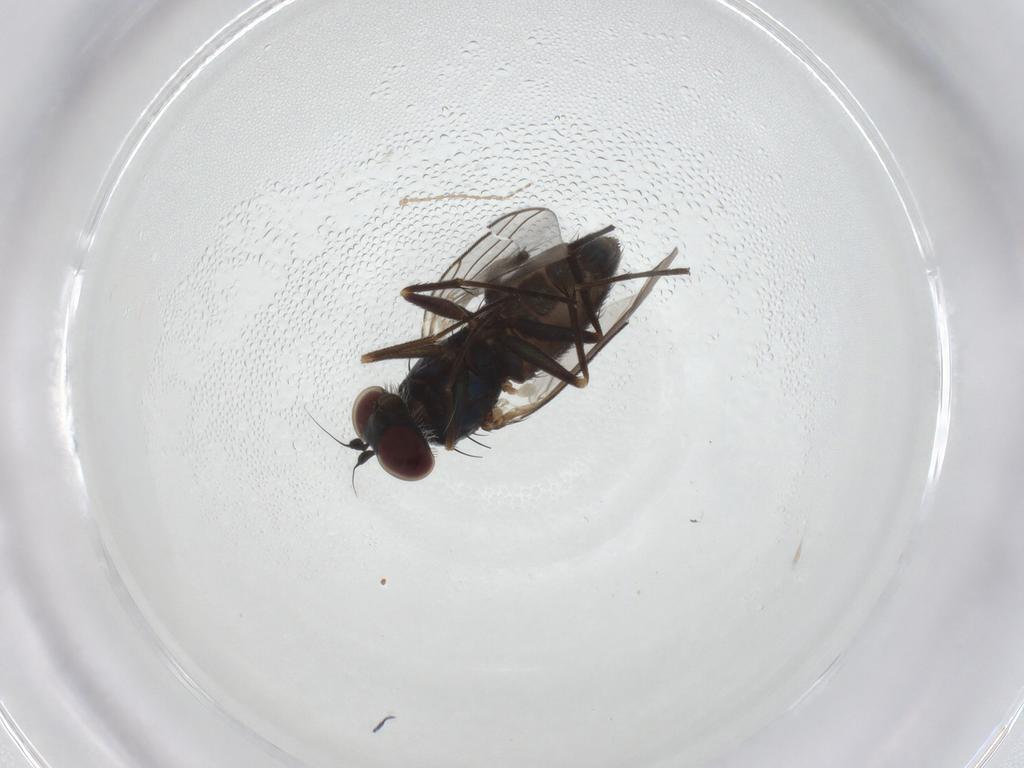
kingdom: Animalia
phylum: Arthropoda
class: Insecta
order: Diptera
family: Dolichopodidae
